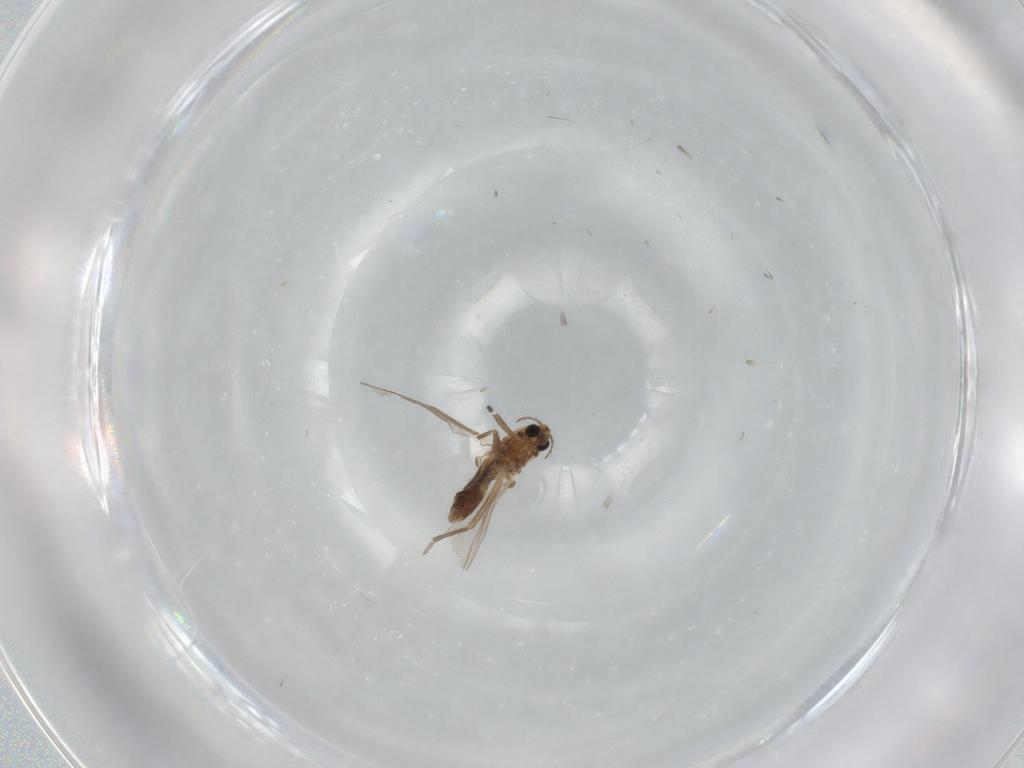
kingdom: Animalia
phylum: Arthropoda
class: Insecta
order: Diptera
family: Chironomidae
